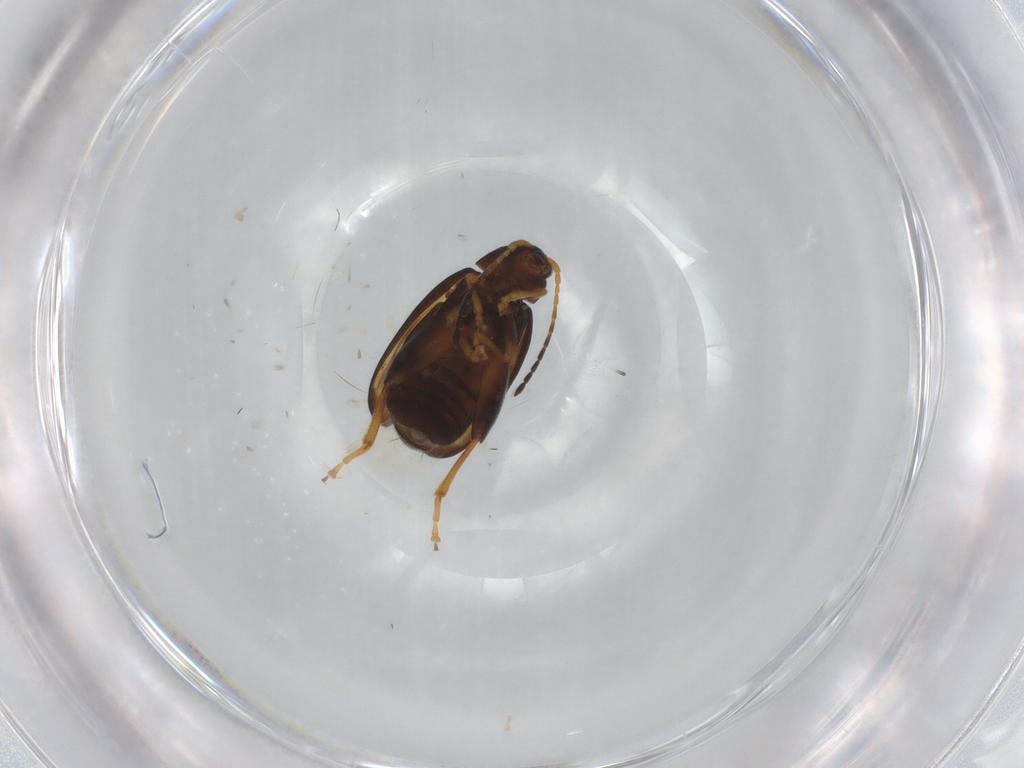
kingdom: Animalia
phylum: Arthropoda
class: Insecta
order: Coleoptera
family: Chrysomelidae
